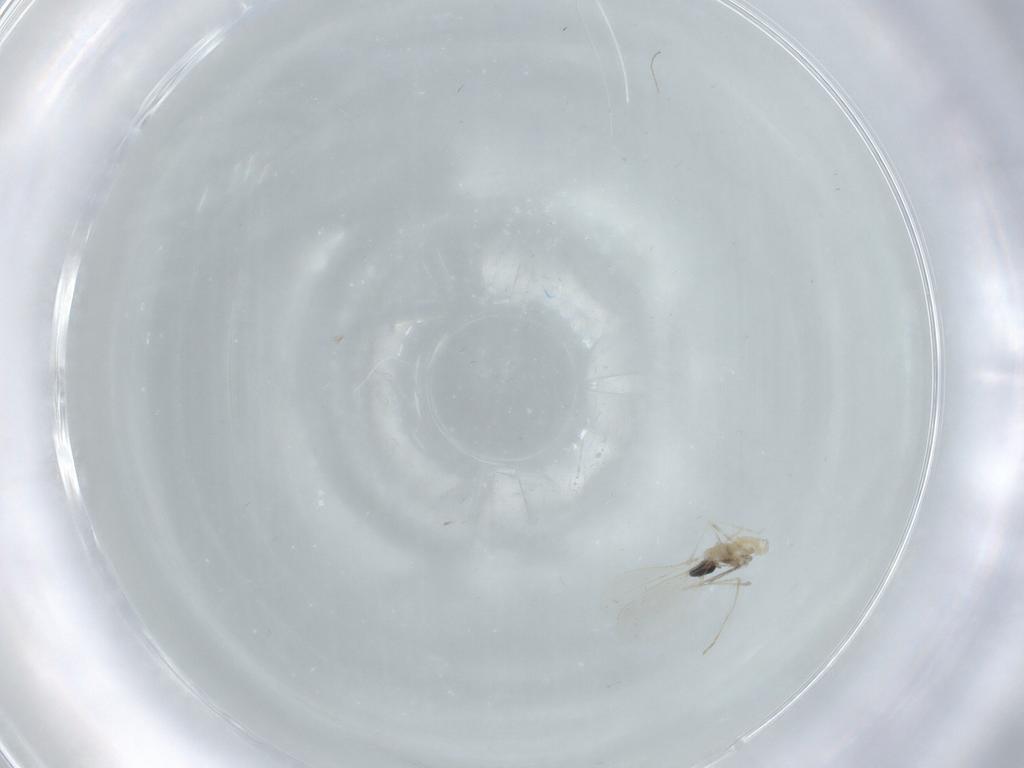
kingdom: Animalia
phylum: Arthropoda
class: Insecta
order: Diptera
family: Cecidomyiidae
